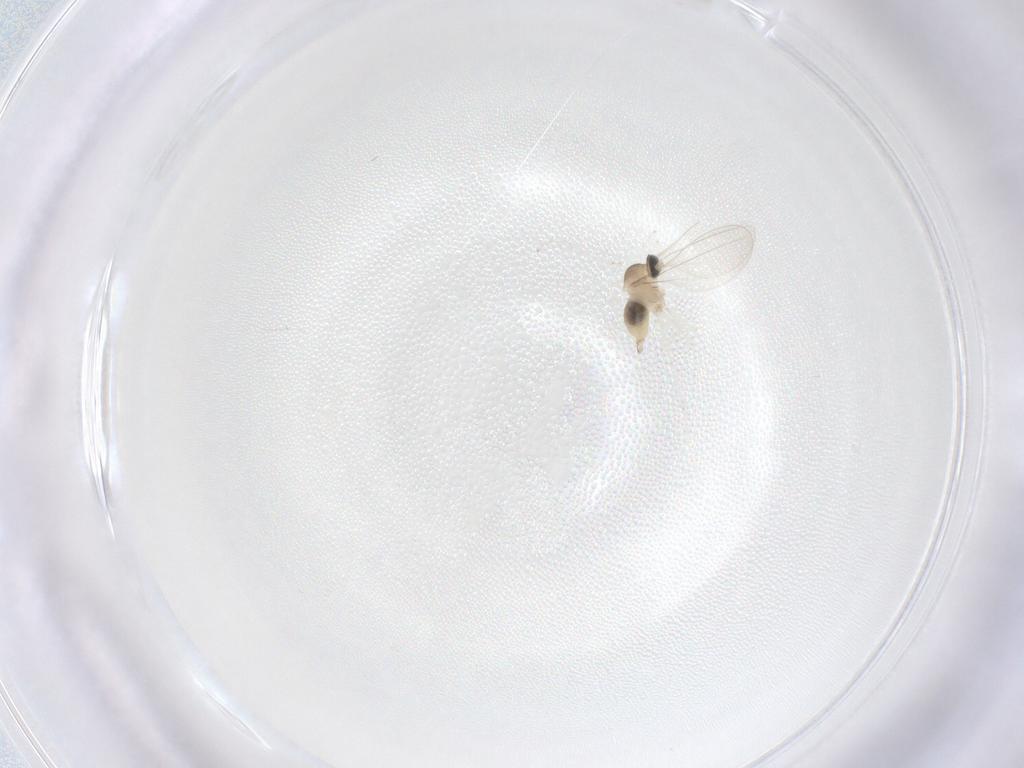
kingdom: Animalia
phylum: Arthropoda
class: Insecta
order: Diptera
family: Cecidomyiidae
